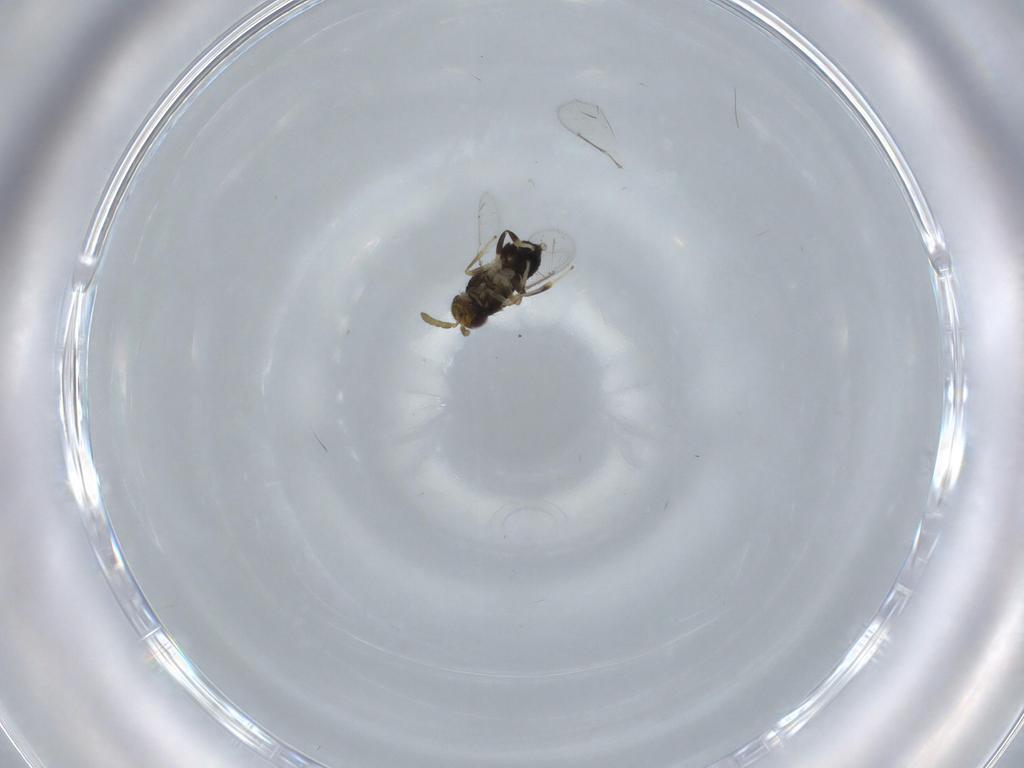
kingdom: Animalia
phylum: Arthropoda
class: Insecta
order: Hymenoptera
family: Aphelinidae
